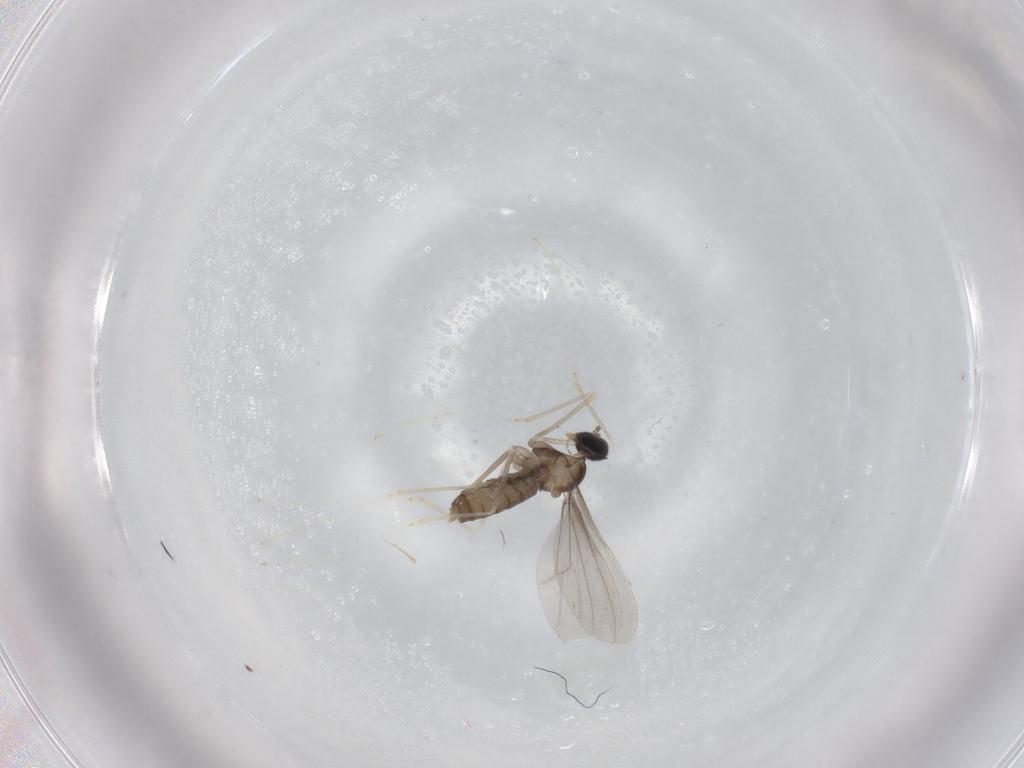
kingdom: Animalia
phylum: Arthropoda
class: Insecta
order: Diptera
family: Cecidomyiidae
